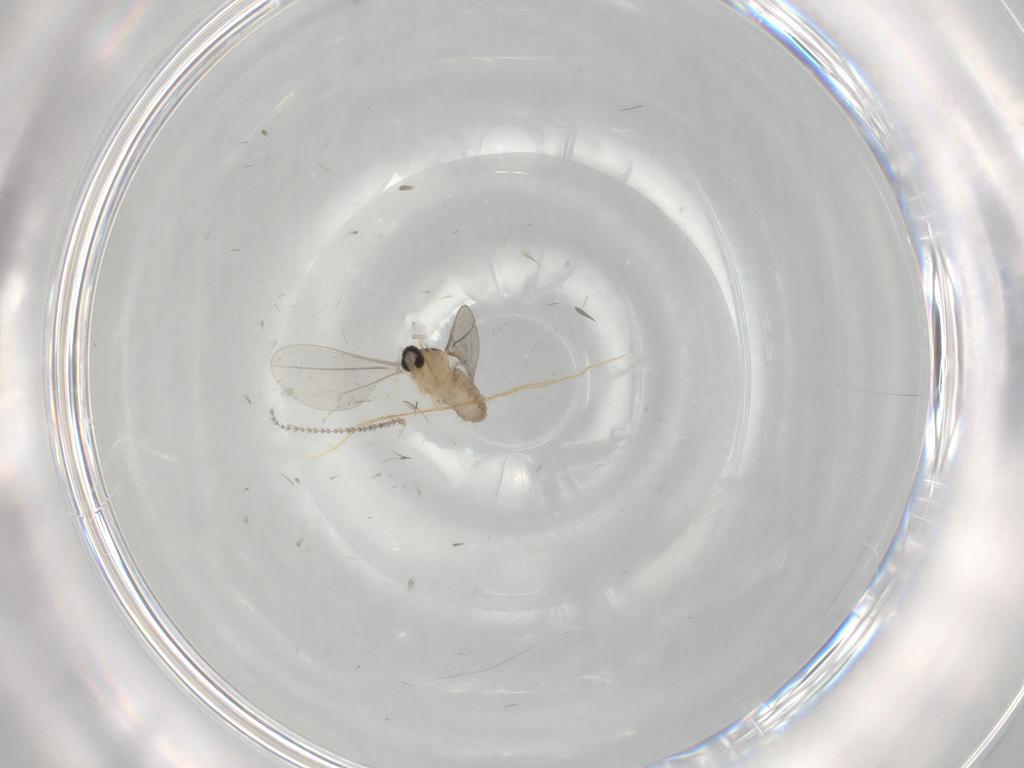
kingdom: Animalia
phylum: Arthropoda
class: Insecta
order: Diptera
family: Cecidomyiidae
